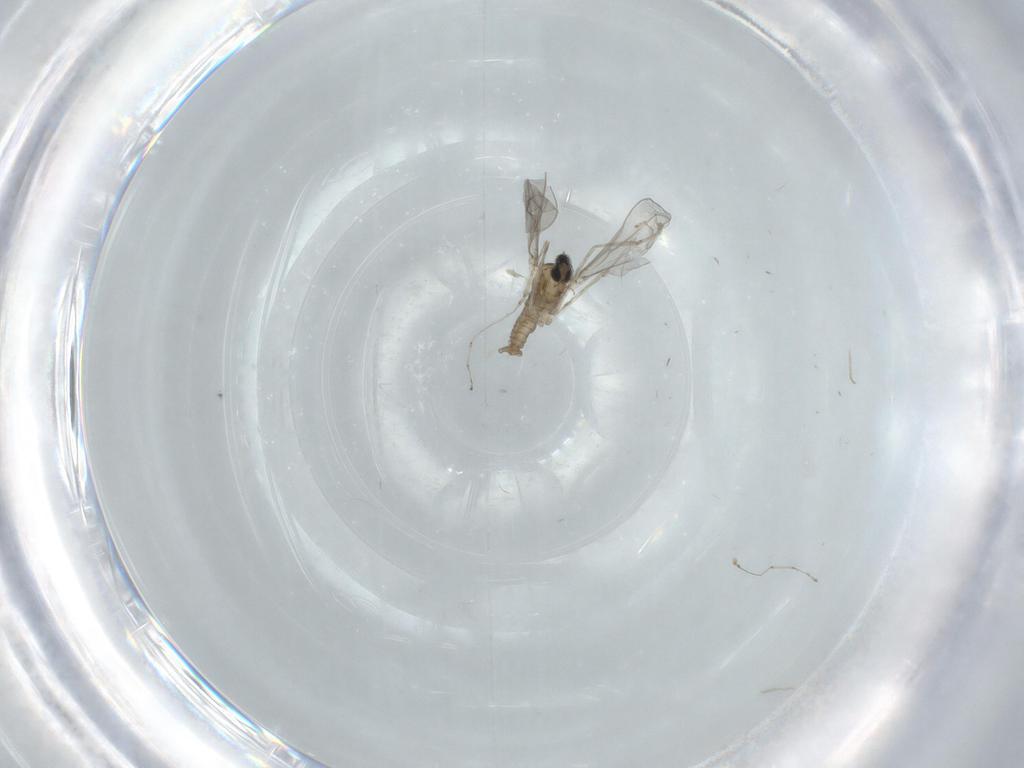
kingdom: Animalia
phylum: Arthropoda
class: Insecta
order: Diptera
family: Cecidomyiidae
